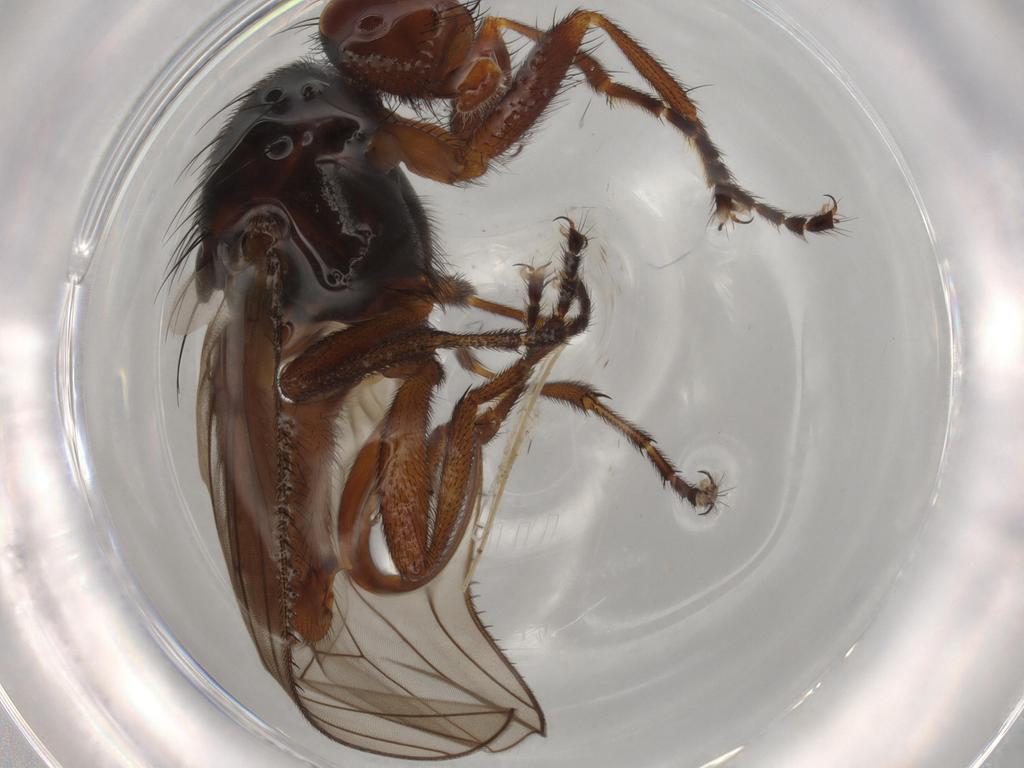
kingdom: Animalia
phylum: Arthropoda
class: Insecta
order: Diptera
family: Heleomyzidae
